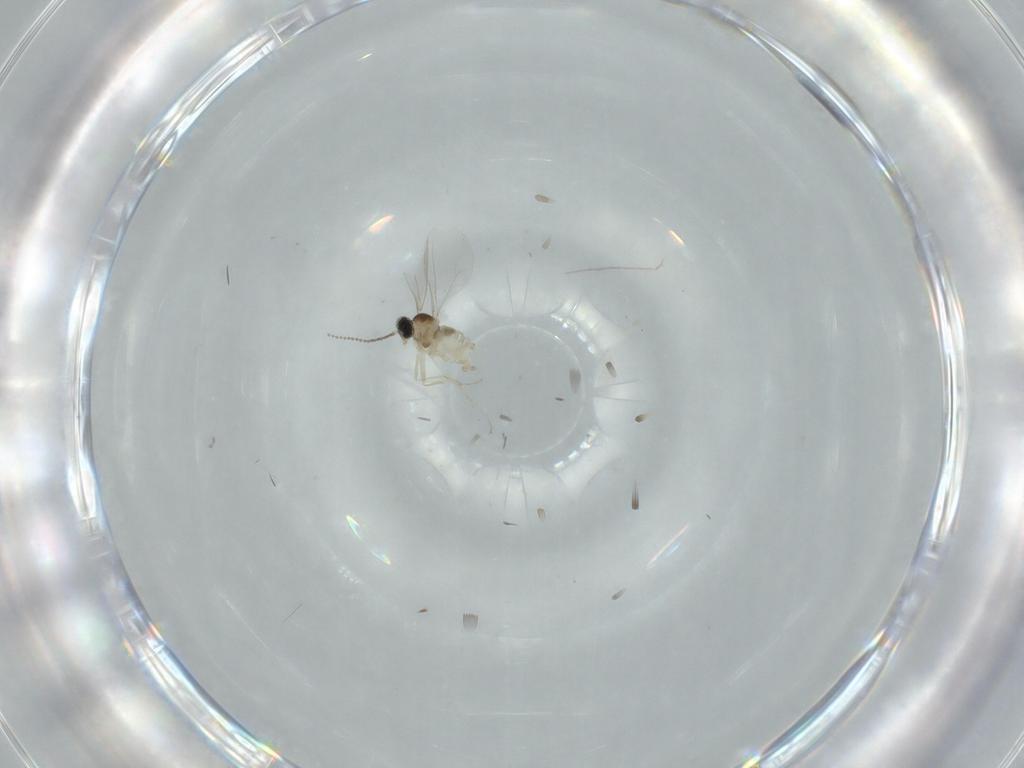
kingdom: Animalia
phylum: Arthropoda
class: Insecta
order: Diptera
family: Cecidomyiidae
